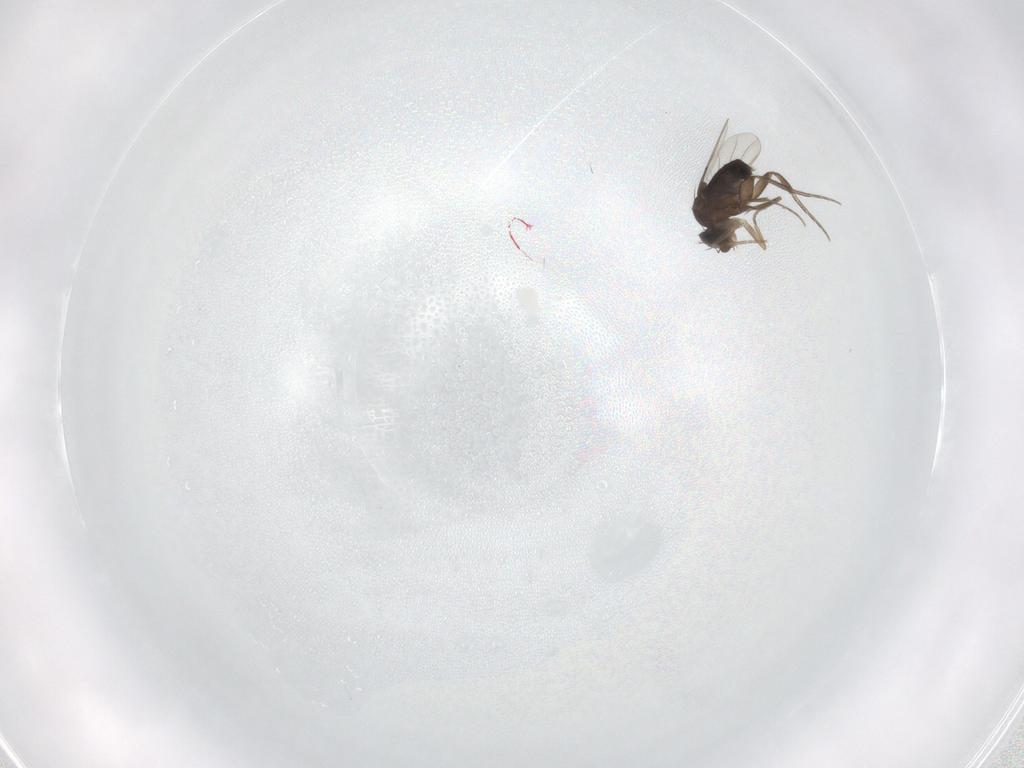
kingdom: Animalia
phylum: Arthropoda
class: Insecta
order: Diptera
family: Phoridae
